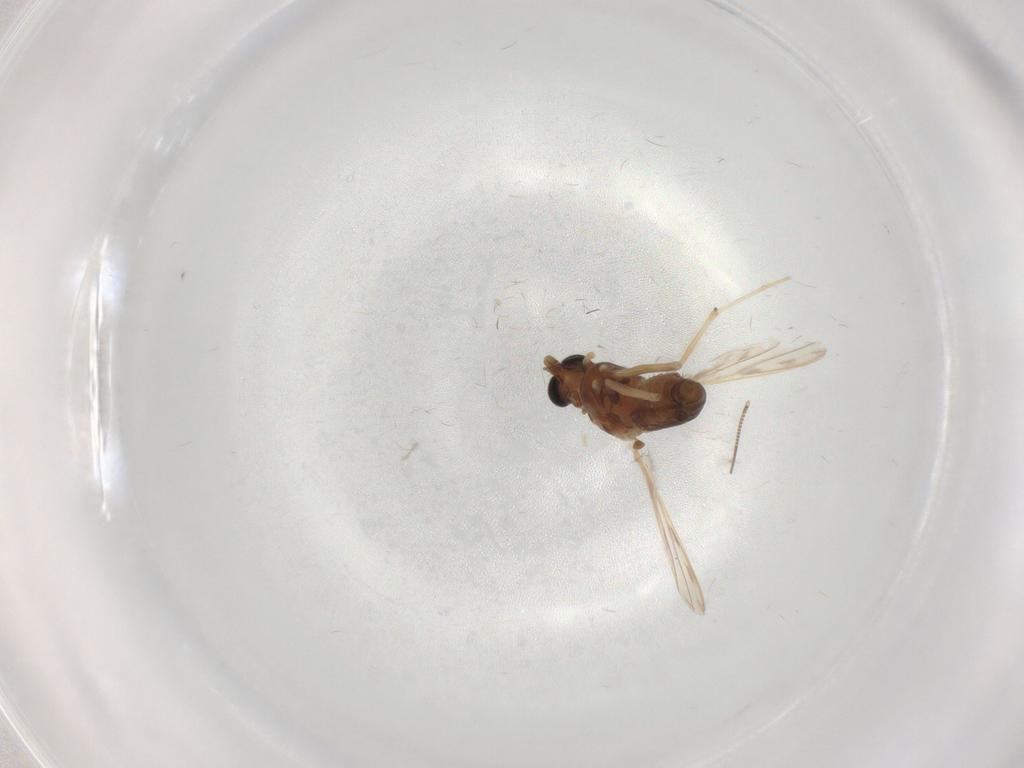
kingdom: Animalia
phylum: Arthropoda
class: Insecta
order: Diptera
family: Chironomidae
